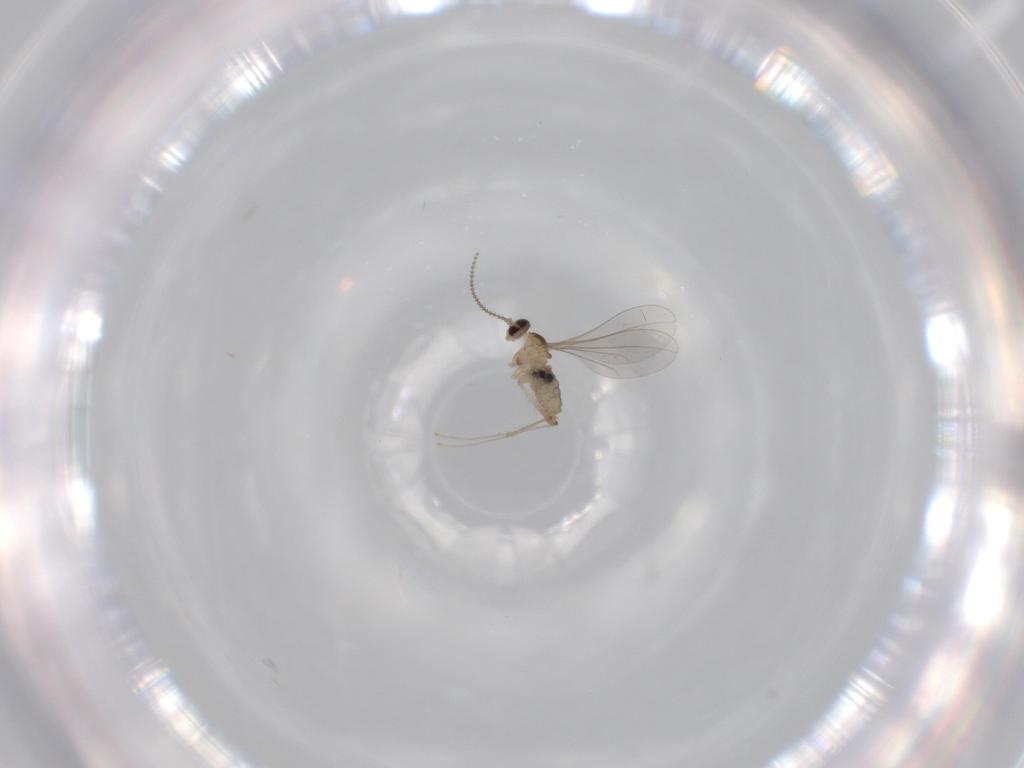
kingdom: Animalia
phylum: Arthropoda
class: Insecta
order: Diptera
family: Cecidomyiidae
